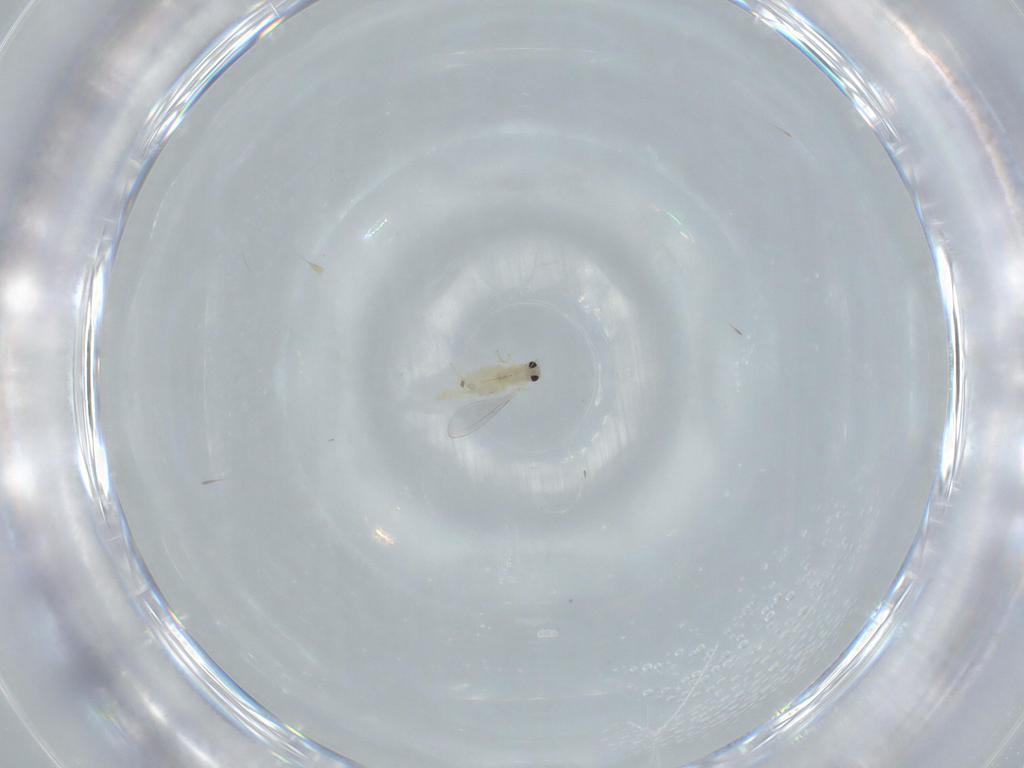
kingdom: Animalia
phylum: Arthropoda
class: Insecta
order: Diptera
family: Cecidomyiidae
